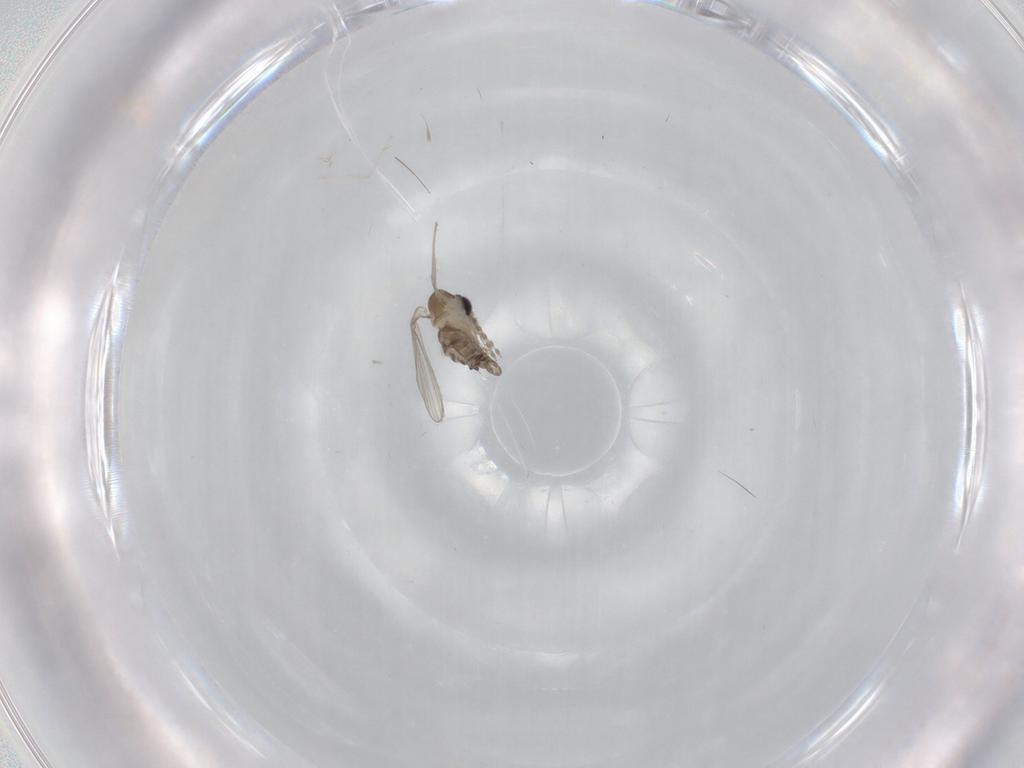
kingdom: Animalia
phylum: Arthropoda
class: Insecta
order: Diptera
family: Cecidomyiidae
